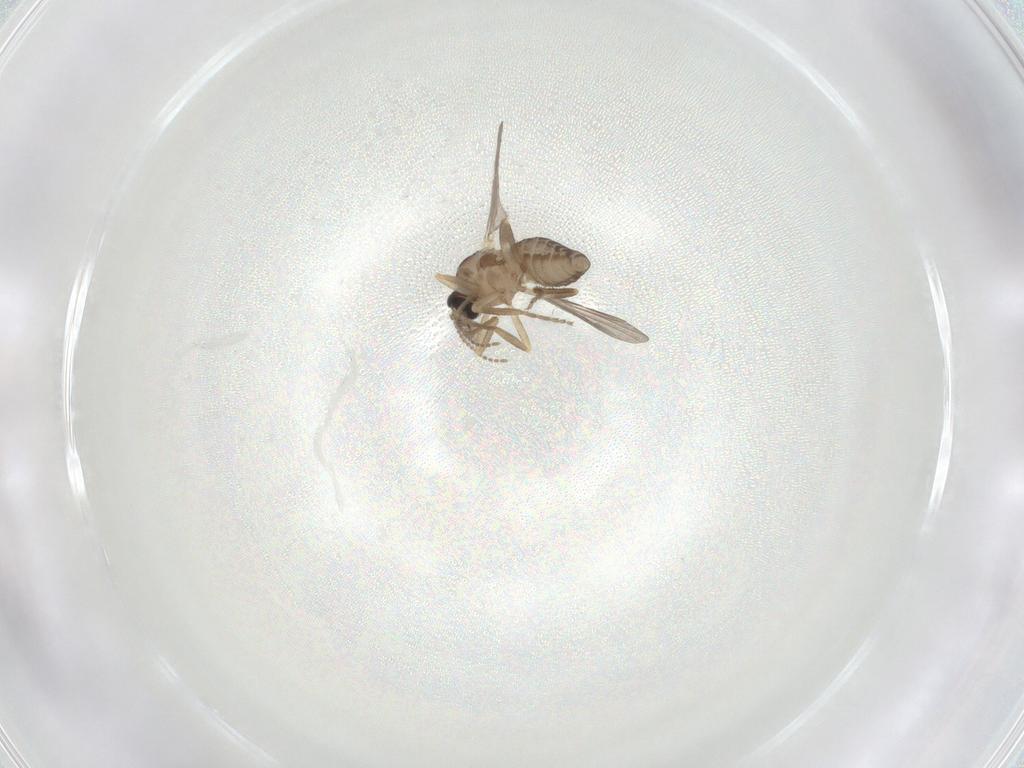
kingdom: Animalia
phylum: Arthropoda
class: Insecta
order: Diptera
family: Ceratopogonidae
